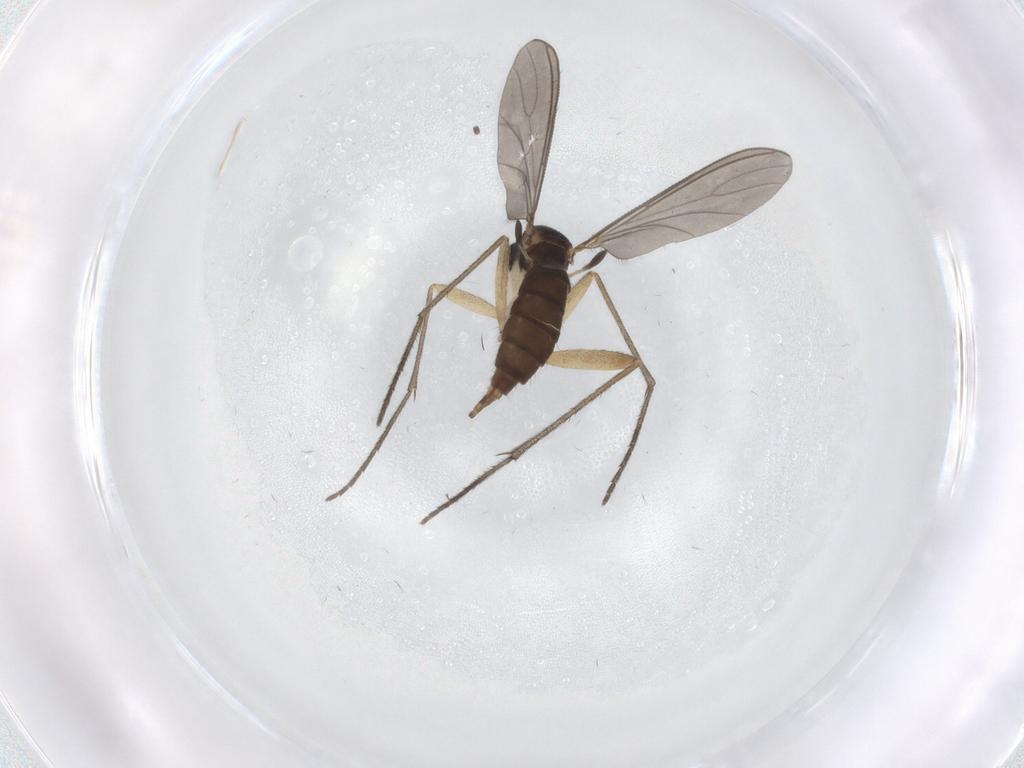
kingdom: Animalia
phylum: Arthropoda
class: Insecta
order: Diptera
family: Sciaridae
